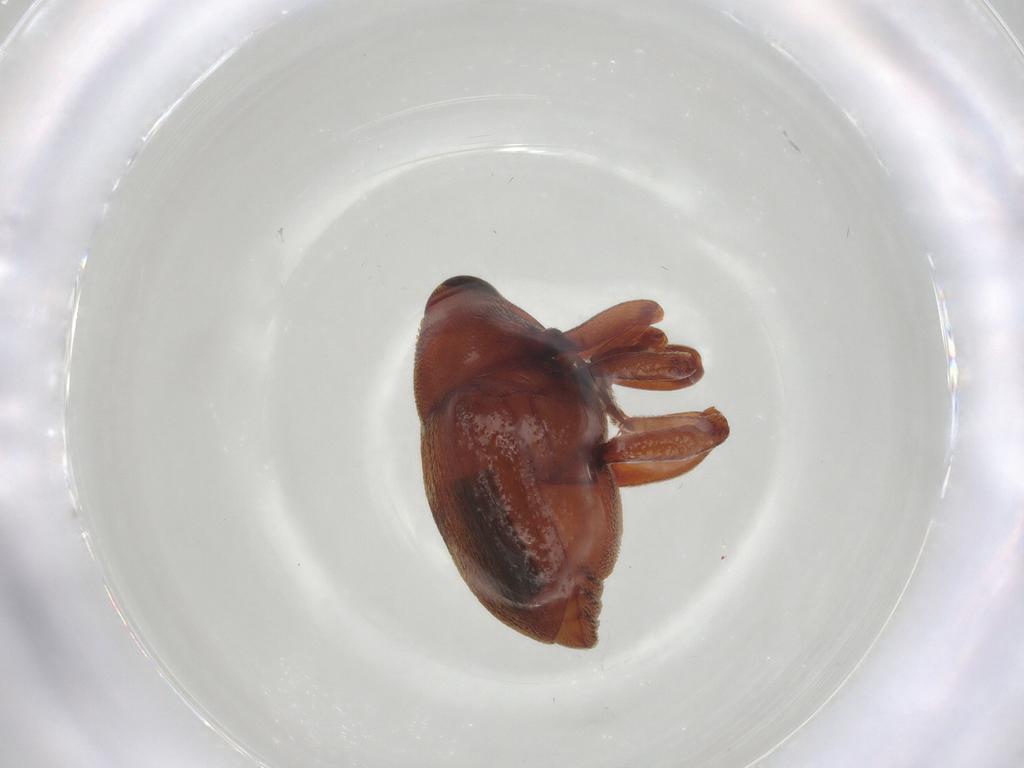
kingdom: Animalia
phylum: Arthropoda
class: Insecta
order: Coleoptera
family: Curculionidae
